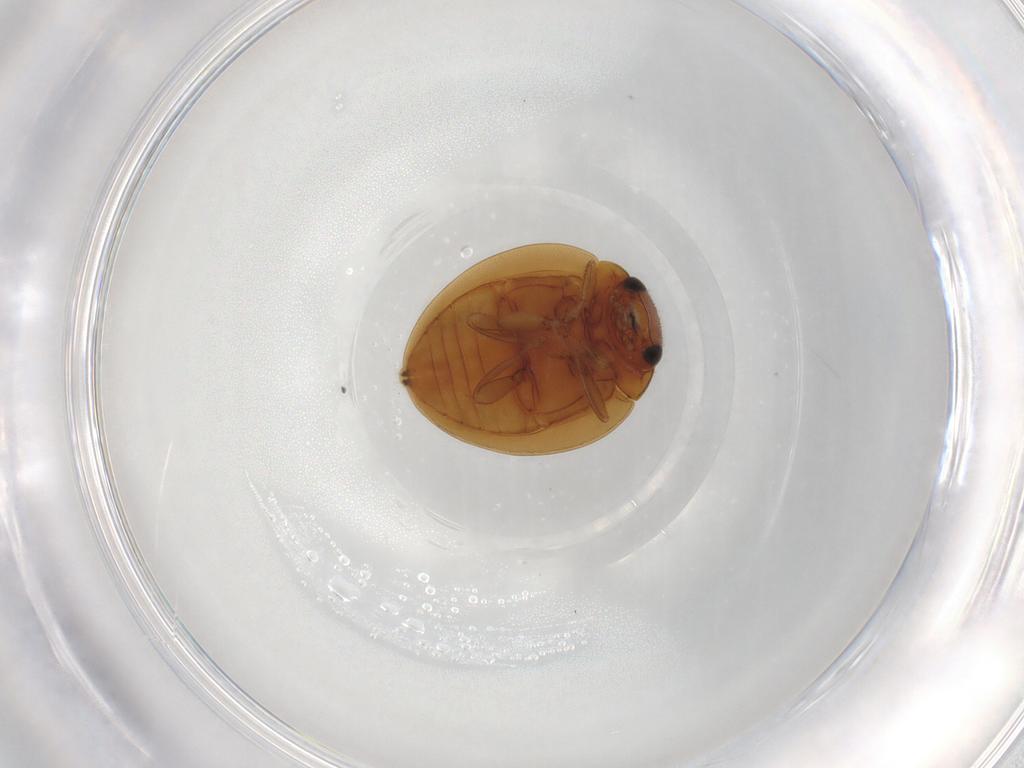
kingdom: Animalia
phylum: Arthropoda
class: Insecta
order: Coleoptera
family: Coccinellidae
